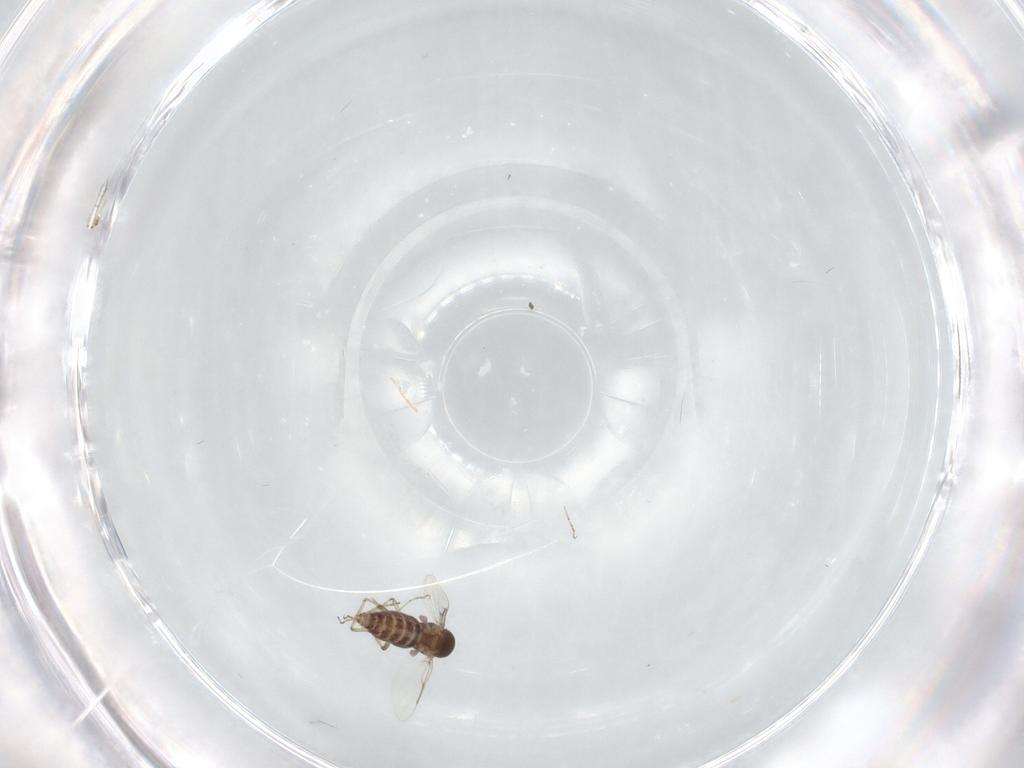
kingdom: Animalia
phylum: Arthropoda
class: Insecta
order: Diptera
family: Ceratopogonidae
